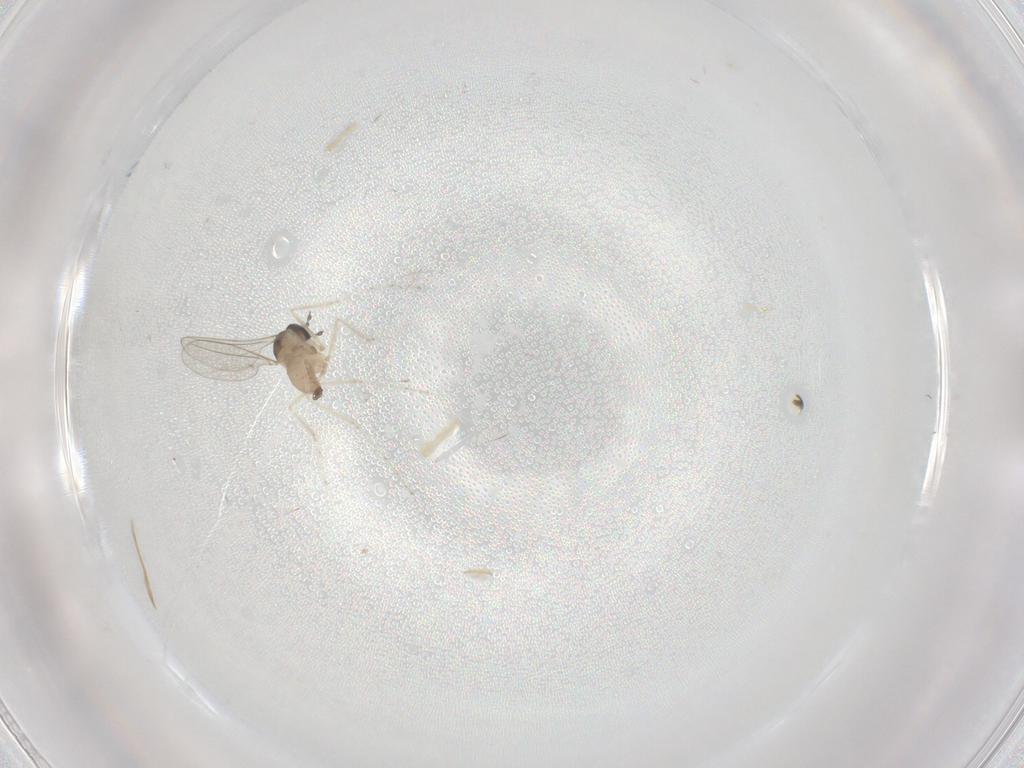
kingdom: Animalia
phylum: Arthropoda
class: Insecta
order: Diptera
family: Cecidomyiidae
